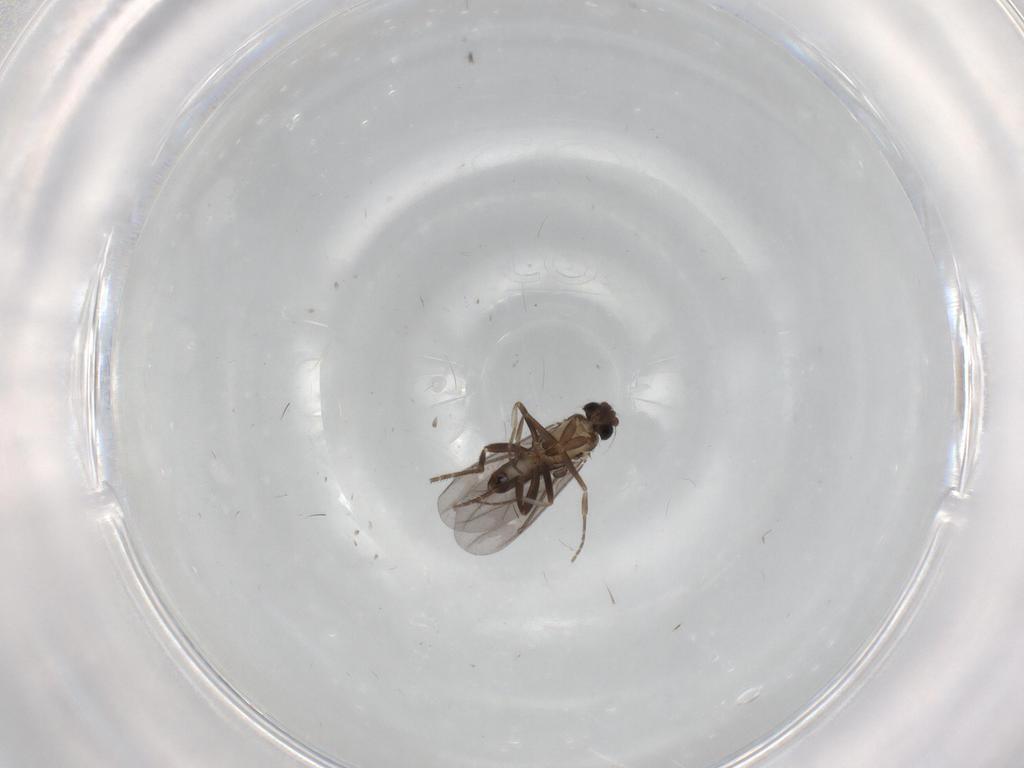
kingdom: Animalia
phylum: Arthropoda
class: Insecta
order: Diptera
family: Phoridae
